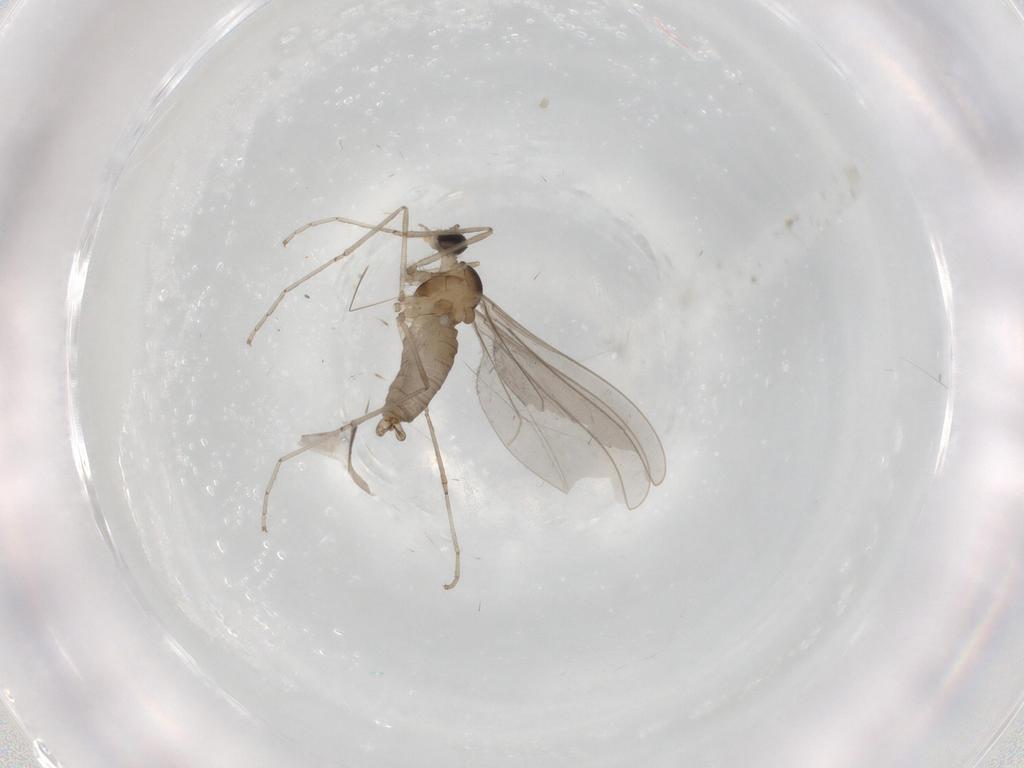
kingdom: Animalia
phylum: Arthropoda
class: Insecta
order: Diptera
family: Cecidomyiidae
